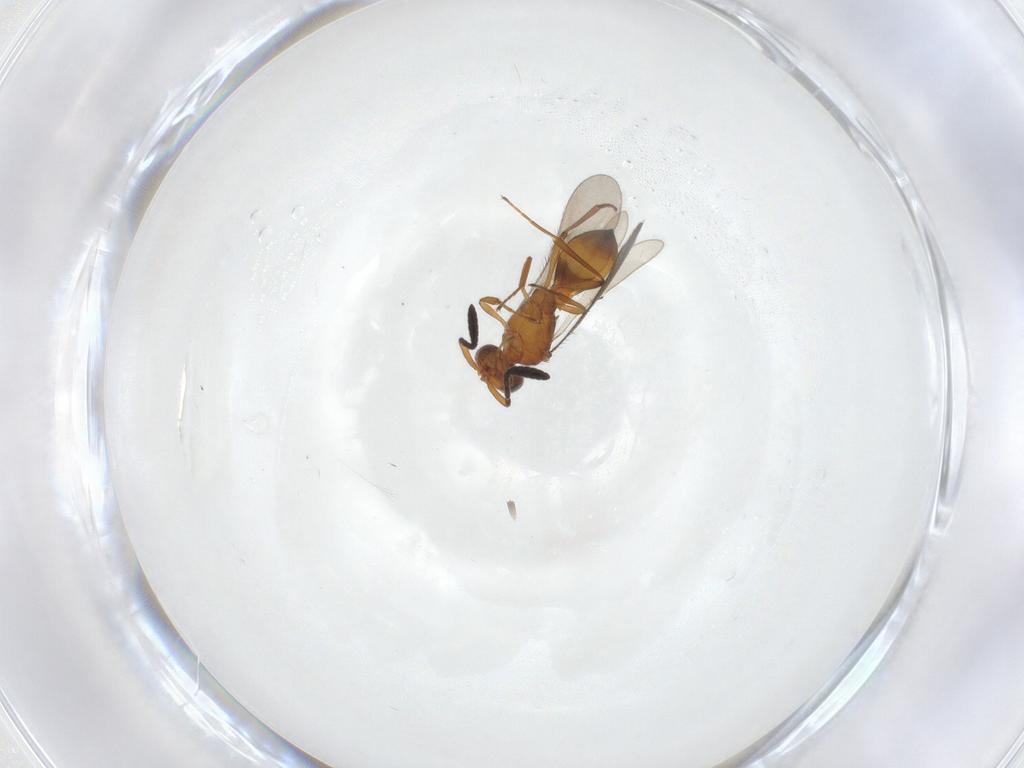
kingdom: Animalia
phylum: Arthropoda
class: Insecta
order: Hymenoptera
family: Scelionidae
